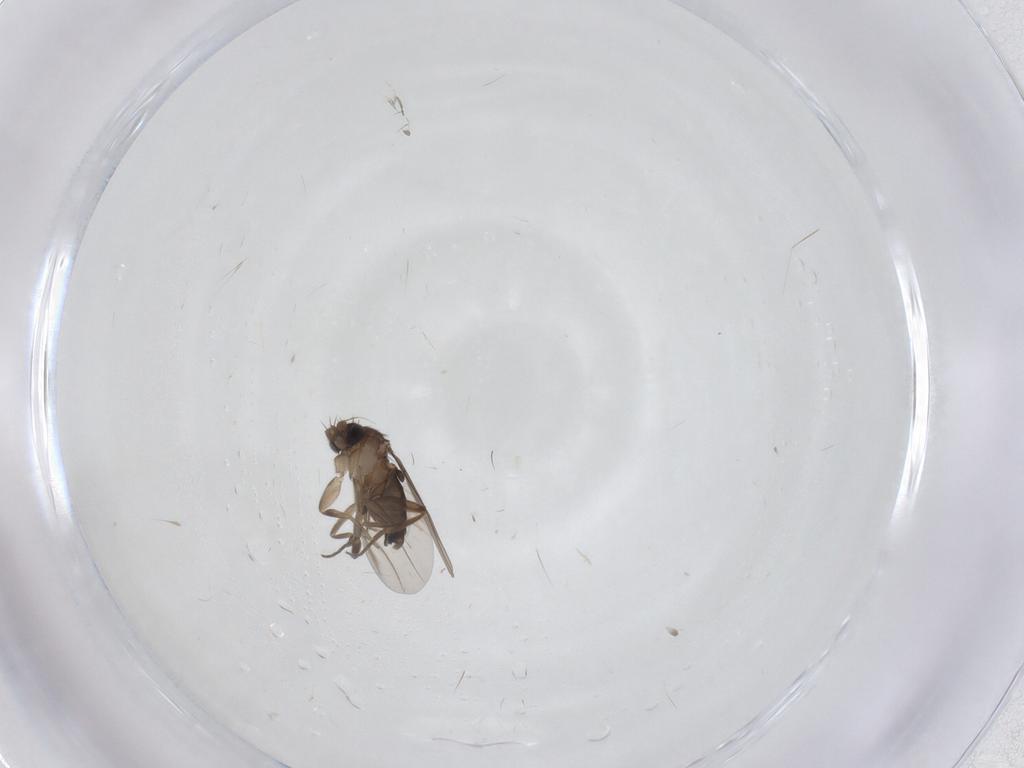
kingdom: Animalia
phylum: Arthropoda
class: Insecta
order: Diptera
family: Phoridae
